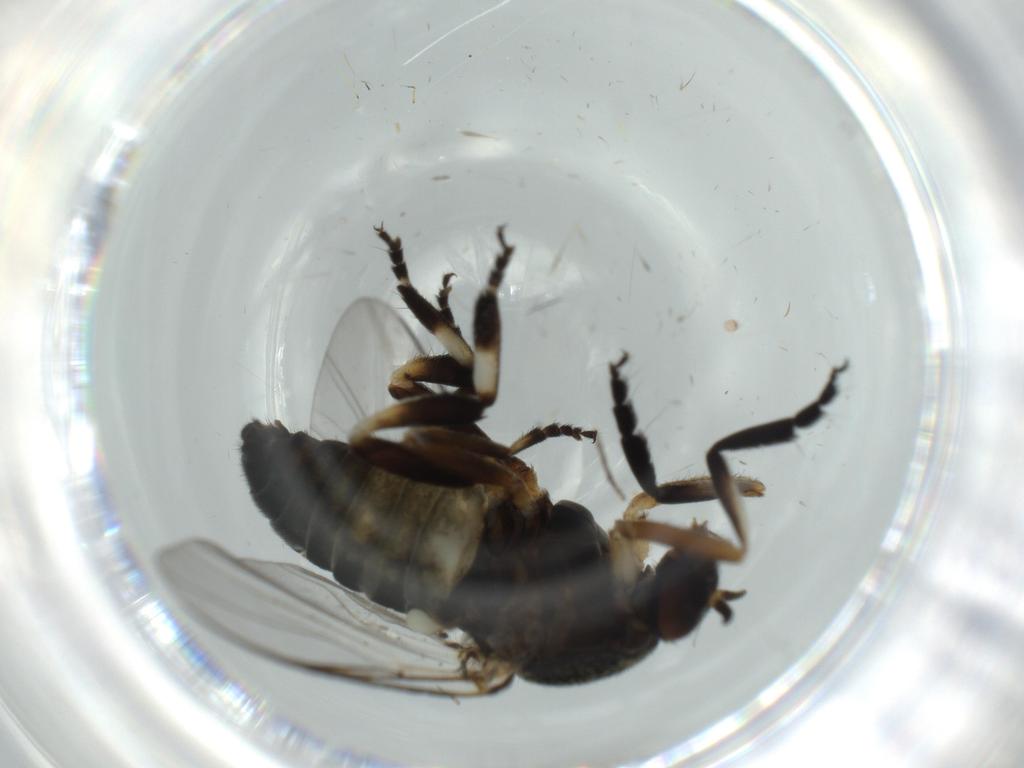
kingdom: Animalia
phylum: Arthropoda
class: Insecta
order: Diptera
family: Drosophilidae
